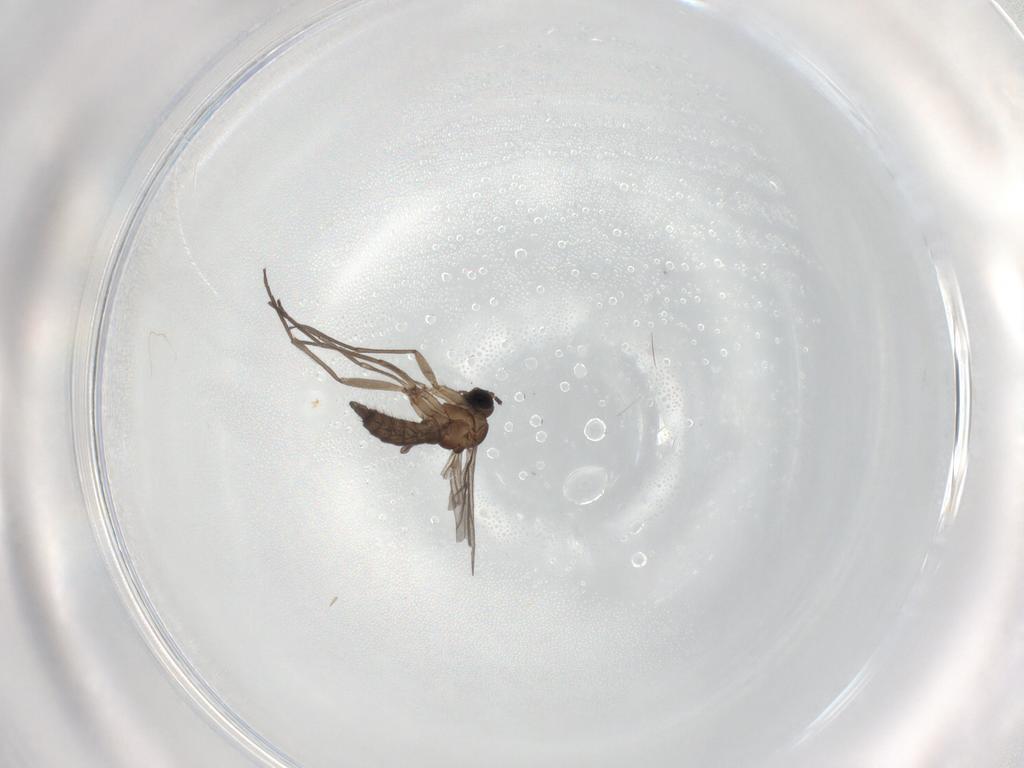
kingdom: Animalia
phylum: Arthropoda
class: Insecta
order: Diptera
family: Sciaridae
